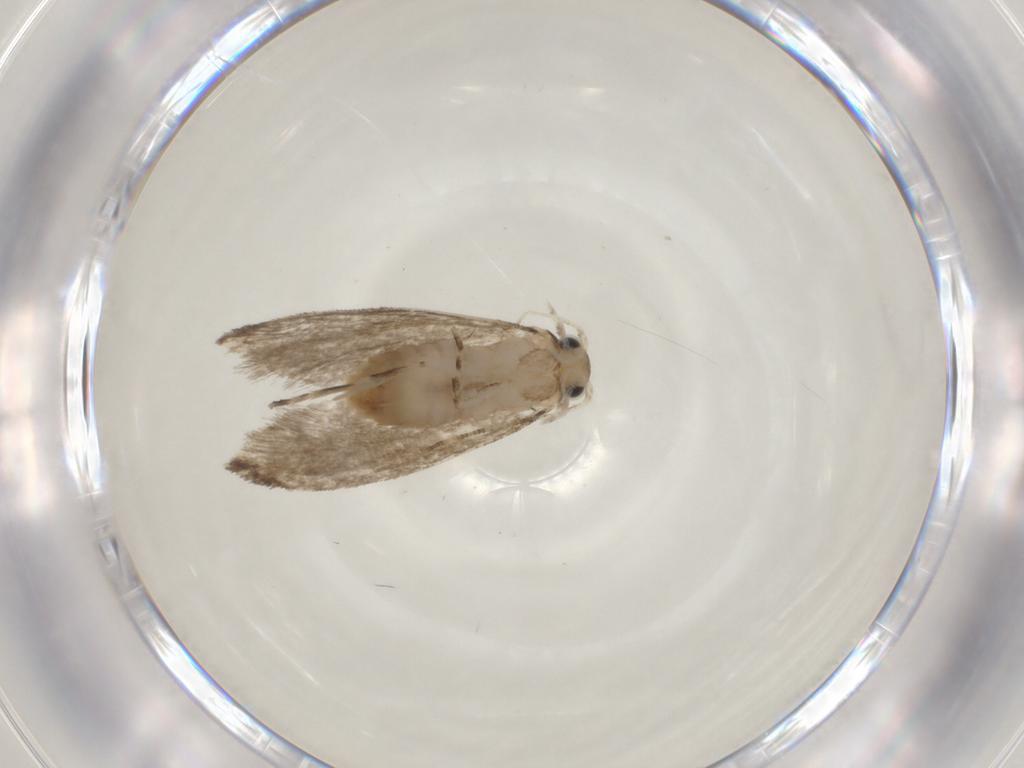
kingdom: Animalia
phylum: Arthropoda
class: Insecta
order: Lepidoptera
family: Tineidae
